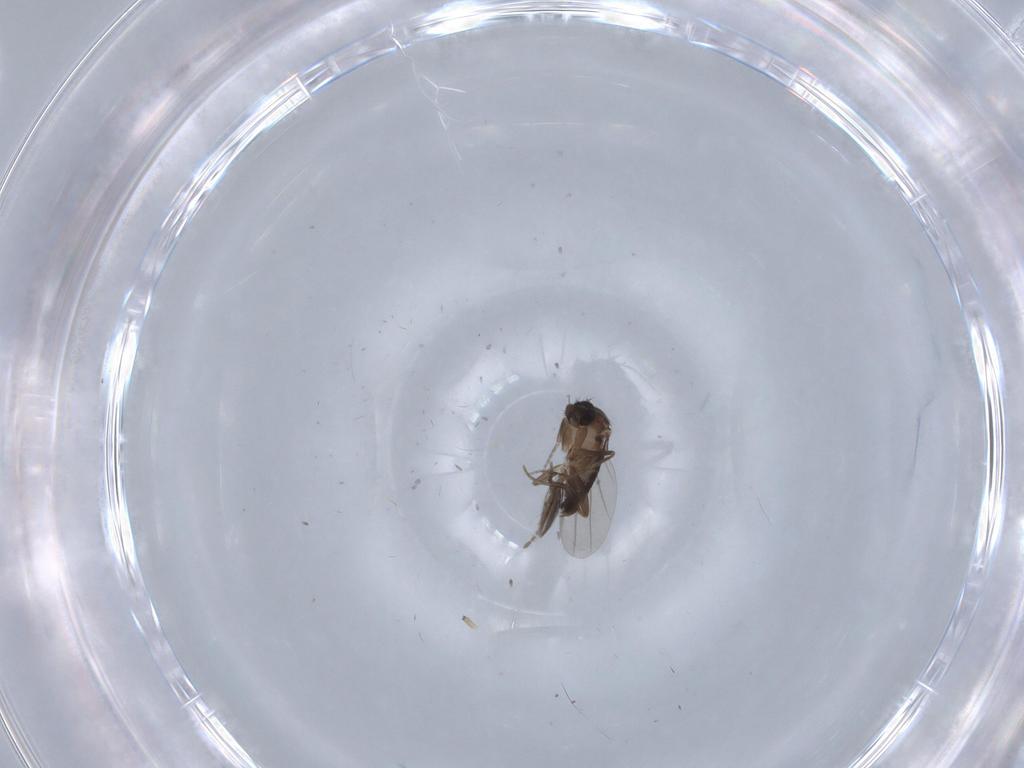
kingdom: Animalia
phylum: Arthropoda
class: Insecta
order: Diptera
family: Phoridae
